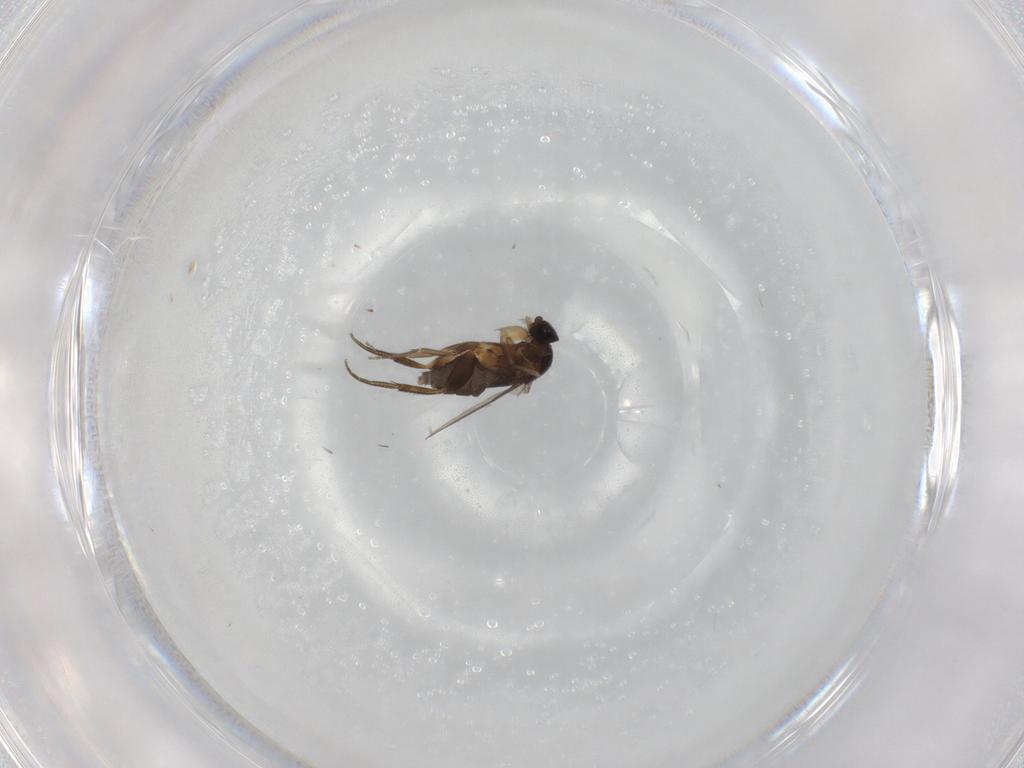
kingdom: Animalia
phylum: Arthropoda
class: Insecta
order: Diptera
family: Phoridae
